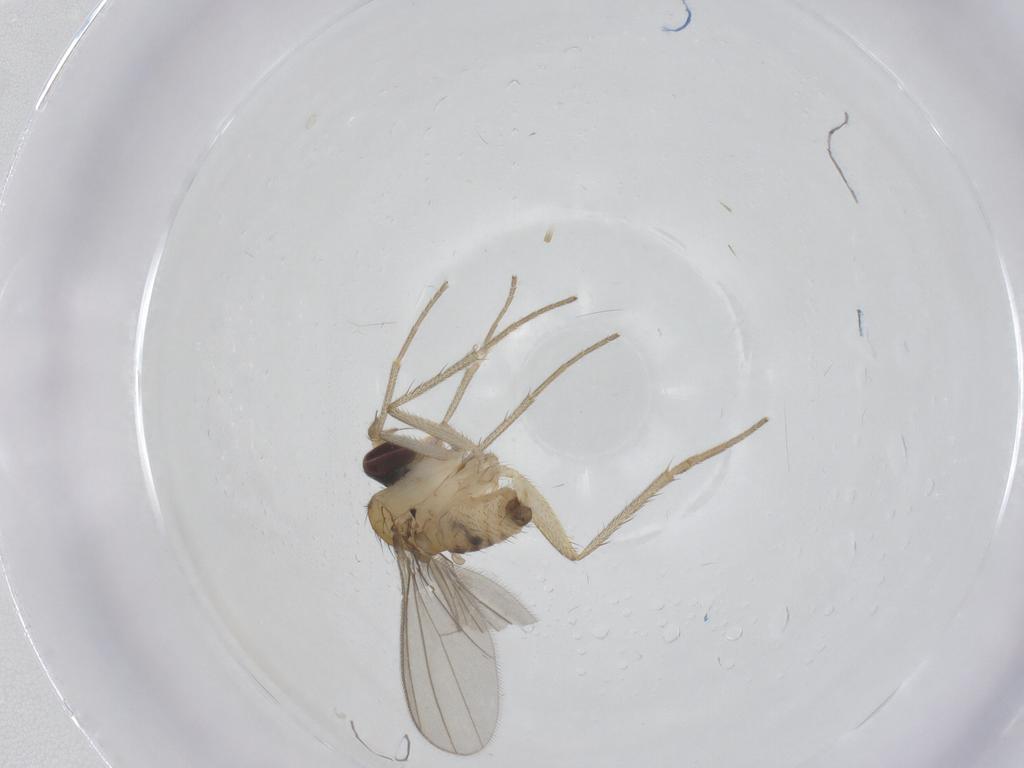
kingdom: Animalia
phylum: Arthropoda
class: Insecta
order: Diptera
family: Dolichopodidae
